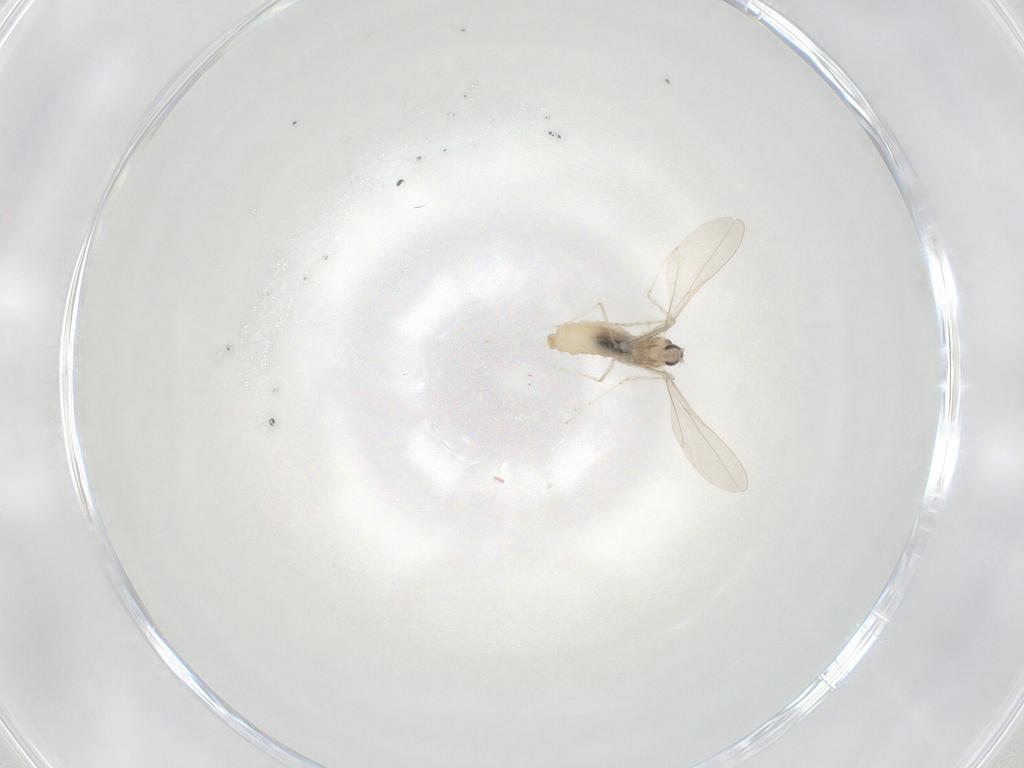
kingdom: Animalia
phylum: Arthropoda
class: Insecta
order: Diptera
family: Cecidomyiidae
